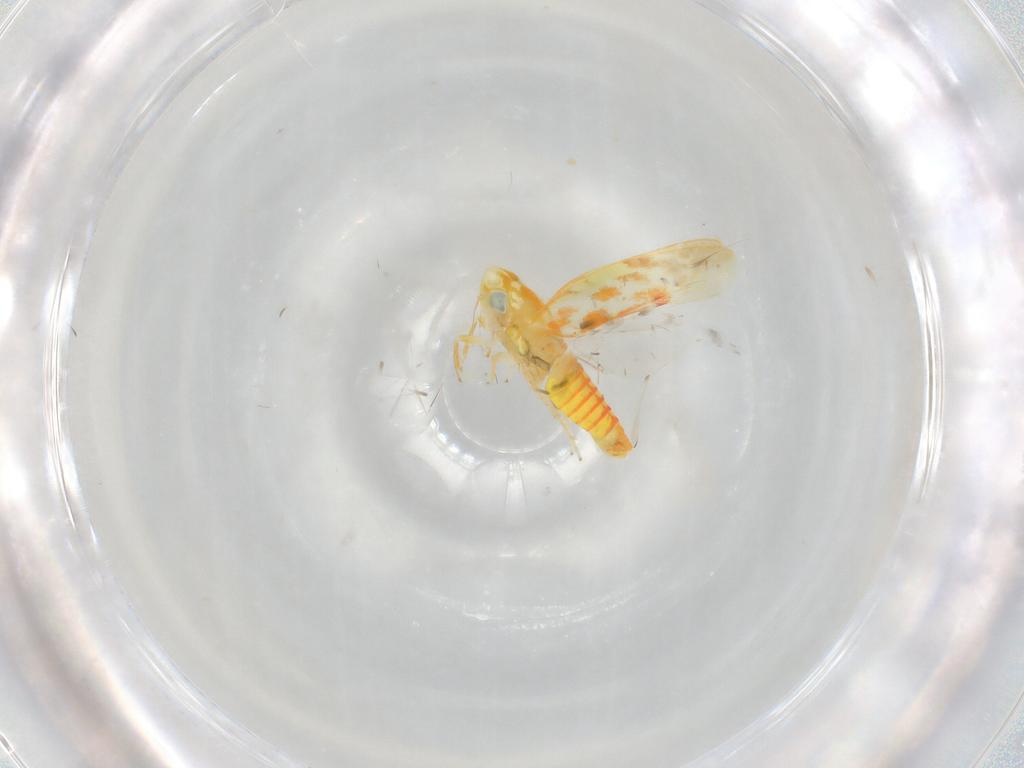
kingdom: Animalia
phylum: Arthropoda
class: Insecta
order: Hemiptera
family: Cicadellidae
